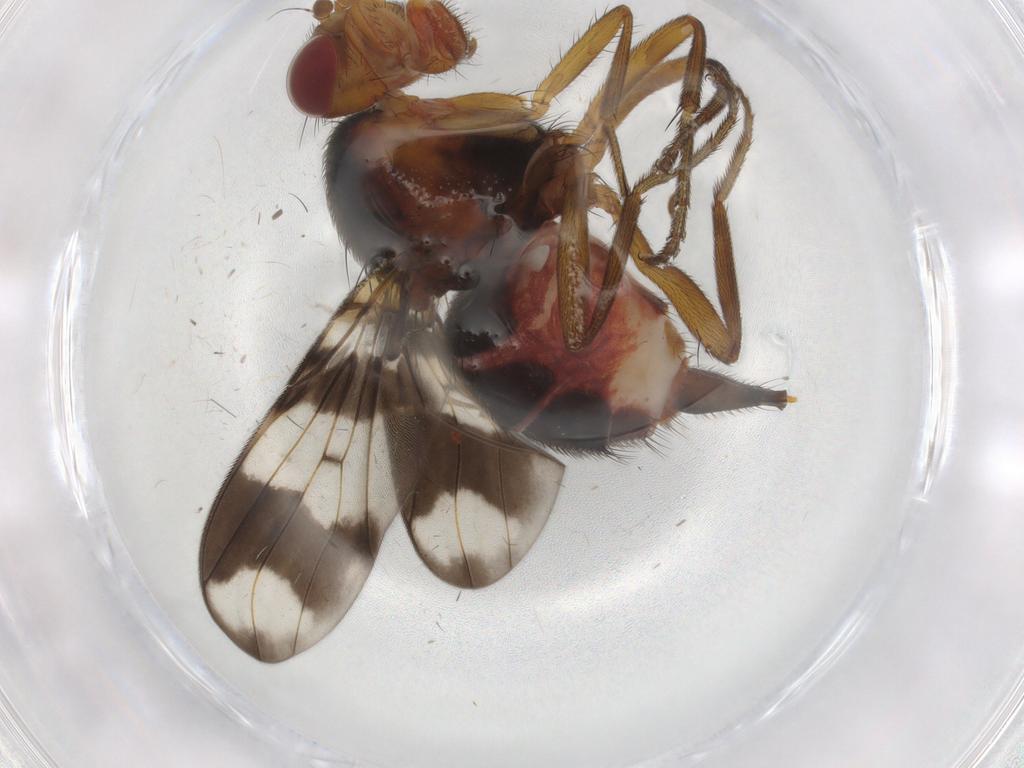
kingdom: Animalia
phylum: Arthropoda
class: Insecta
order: Diptera
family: Richardiidae
